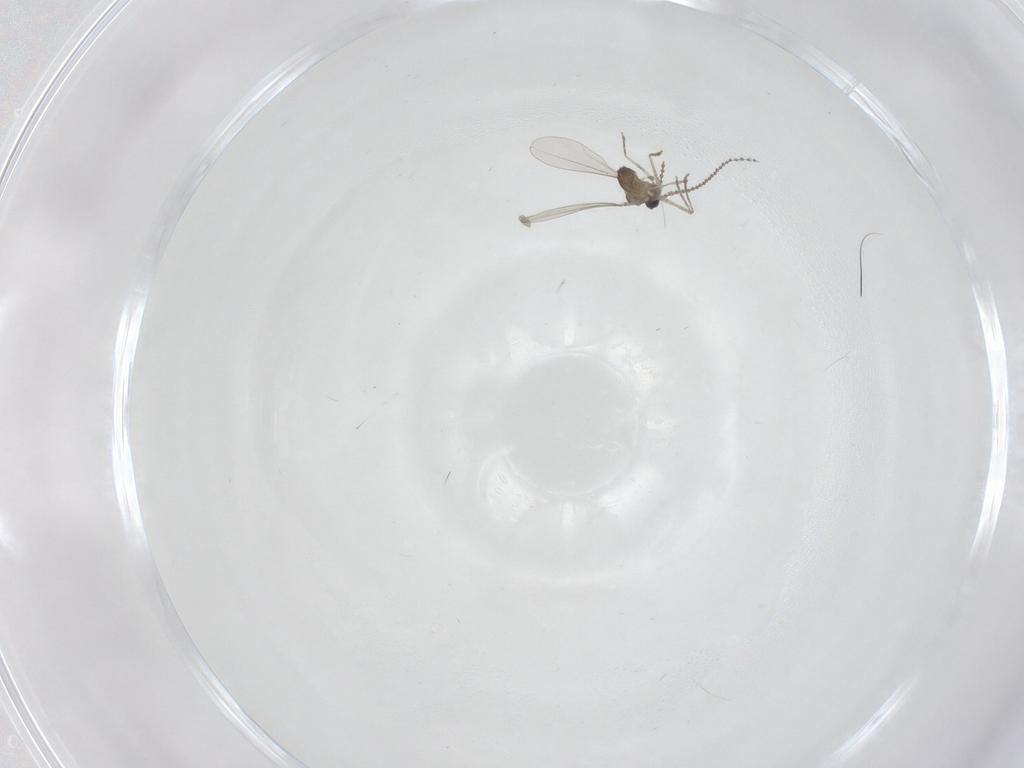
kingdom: Animalia
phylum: Arthropoda
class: Insecta
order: Diptera
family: Cecidomyiidae
